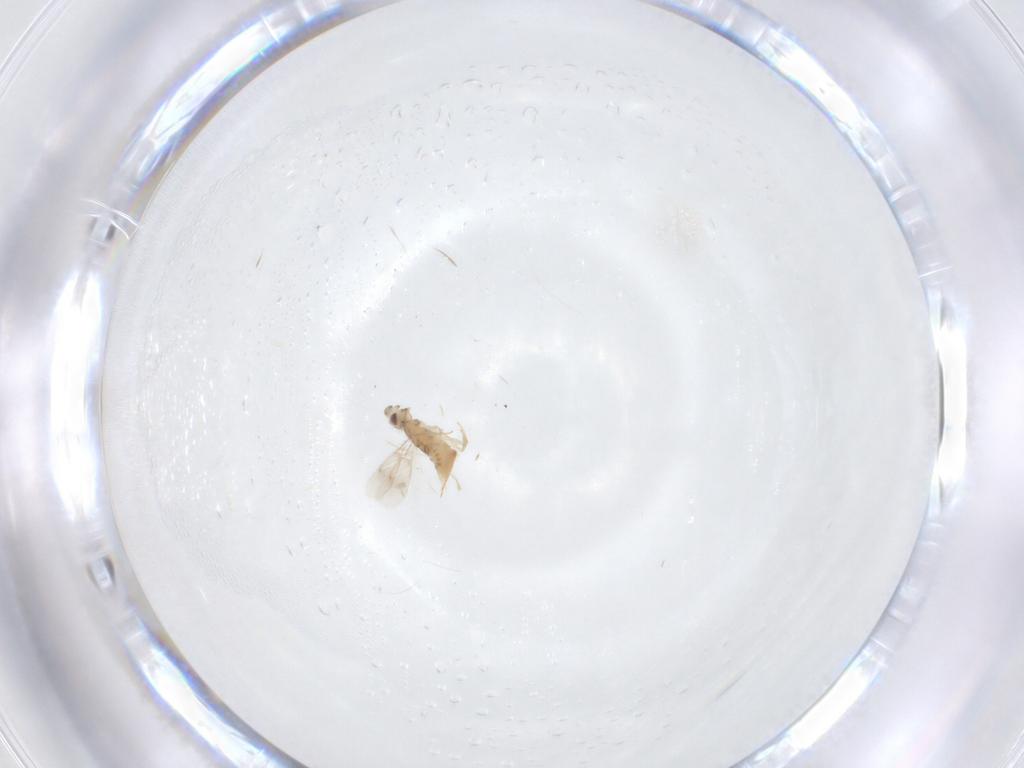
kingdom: Animalia
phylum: Arthropoda
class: Insecta
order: Hymenoptera
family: Aphelinidae
